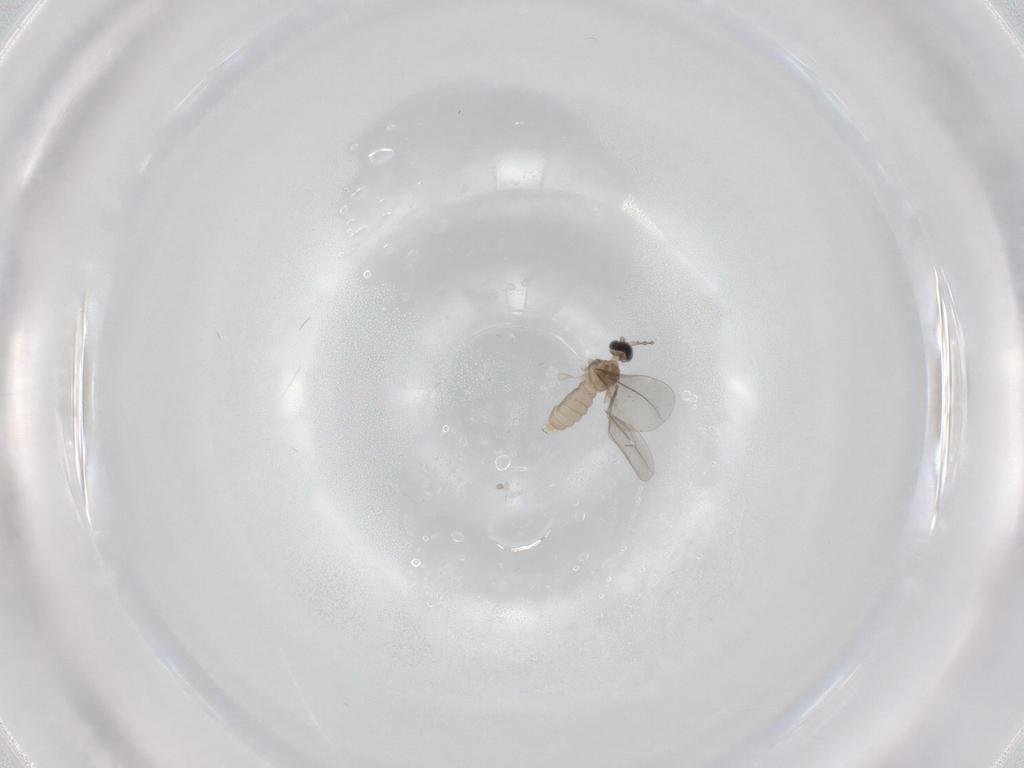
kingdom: Animalia
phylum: Arthropoda
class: Insecta
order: Diptera
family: Cecidomyiidae
